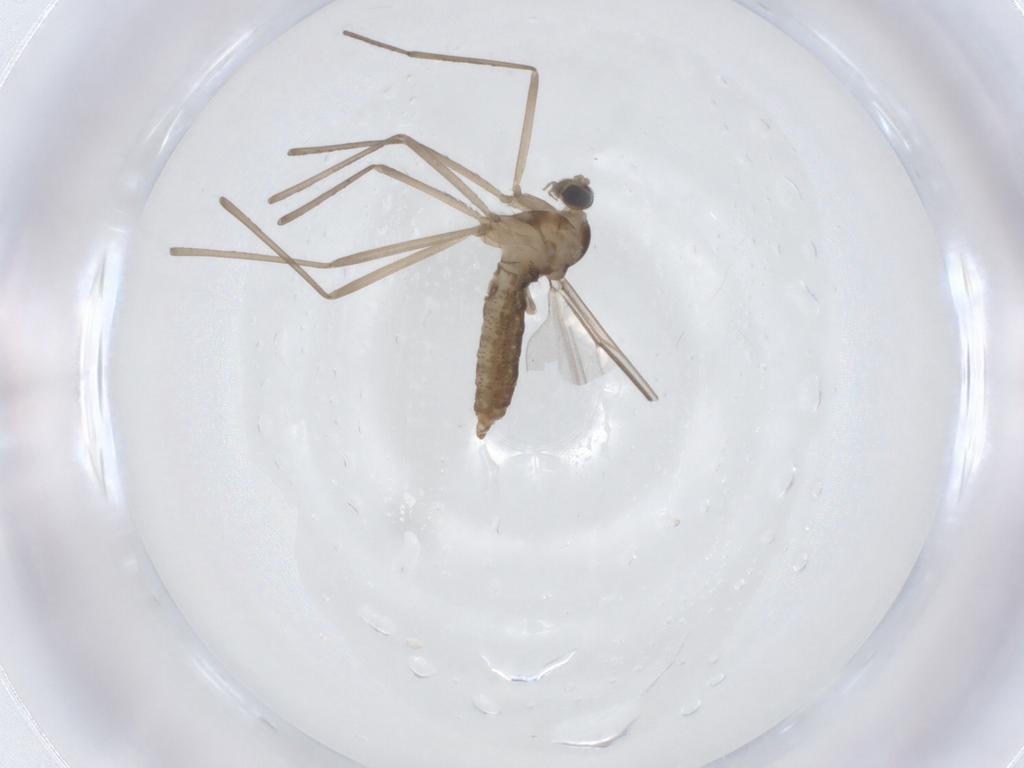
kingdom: Animalia
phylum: Arthropoda
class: Insecta
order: Diptera
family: Cecidomyiidae
